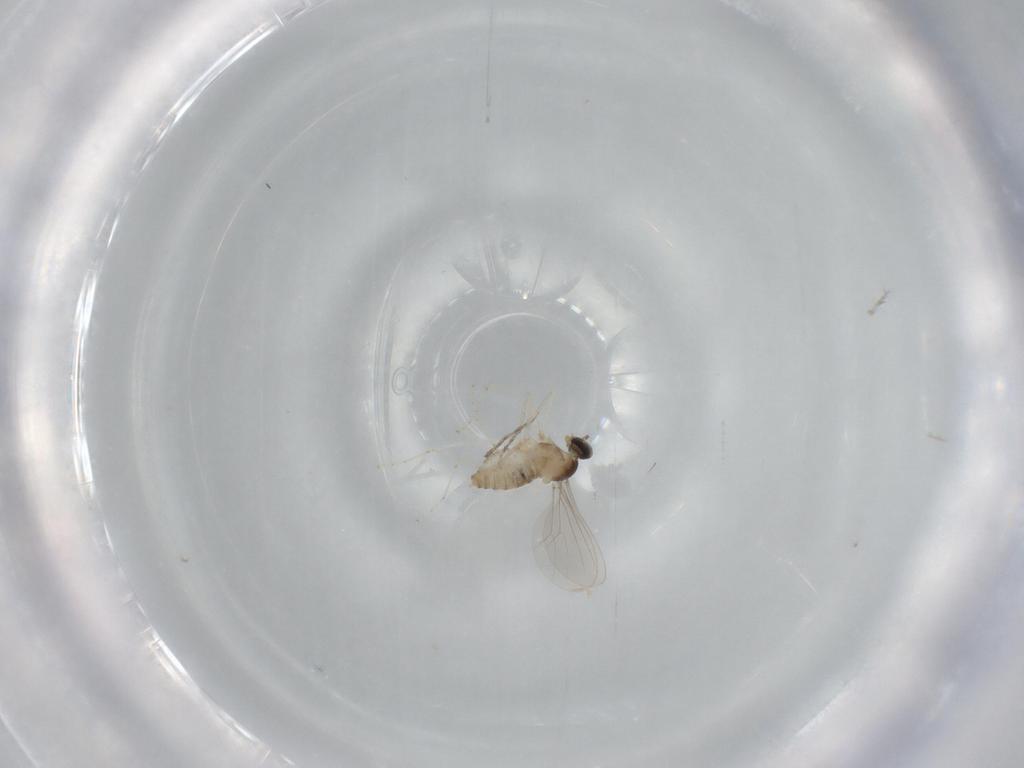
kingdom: Animalia
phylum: Arthropoda
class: Insecta
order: Diptera
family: Cecidomyiidae
